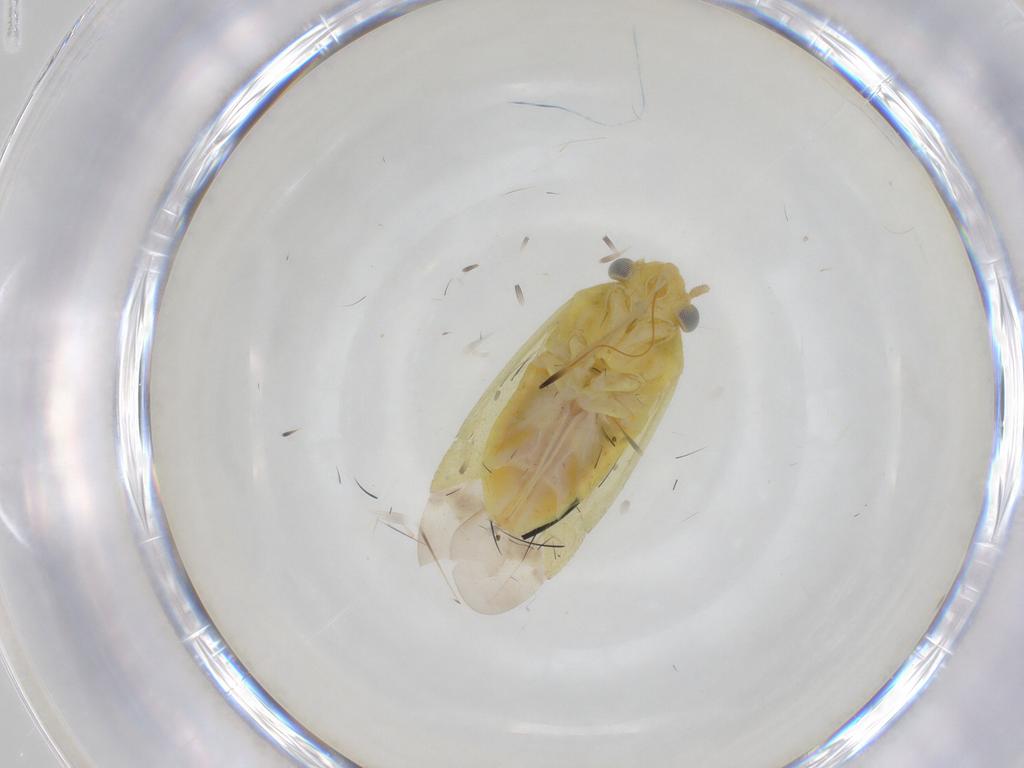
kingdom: Animalia
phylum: Arthropoda
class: Insecta
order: Hemiptera
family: Miridae
